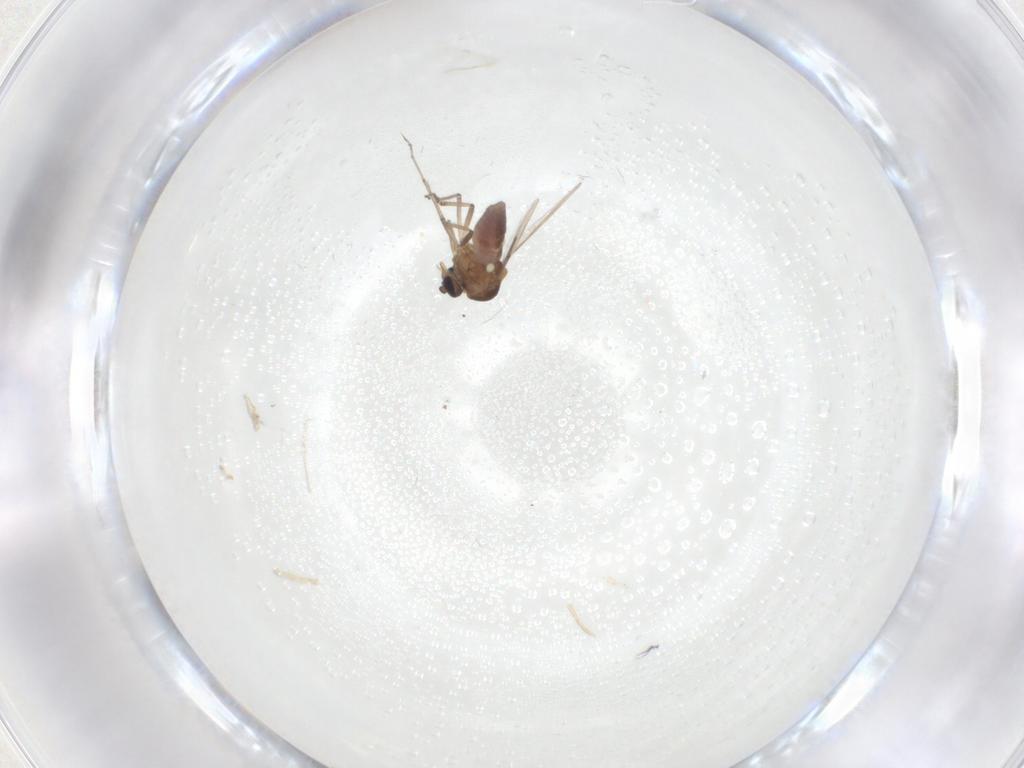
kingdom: Animalia
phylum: Arthropoda
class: Insecta
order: Diptera
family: Ceratopogonidae
